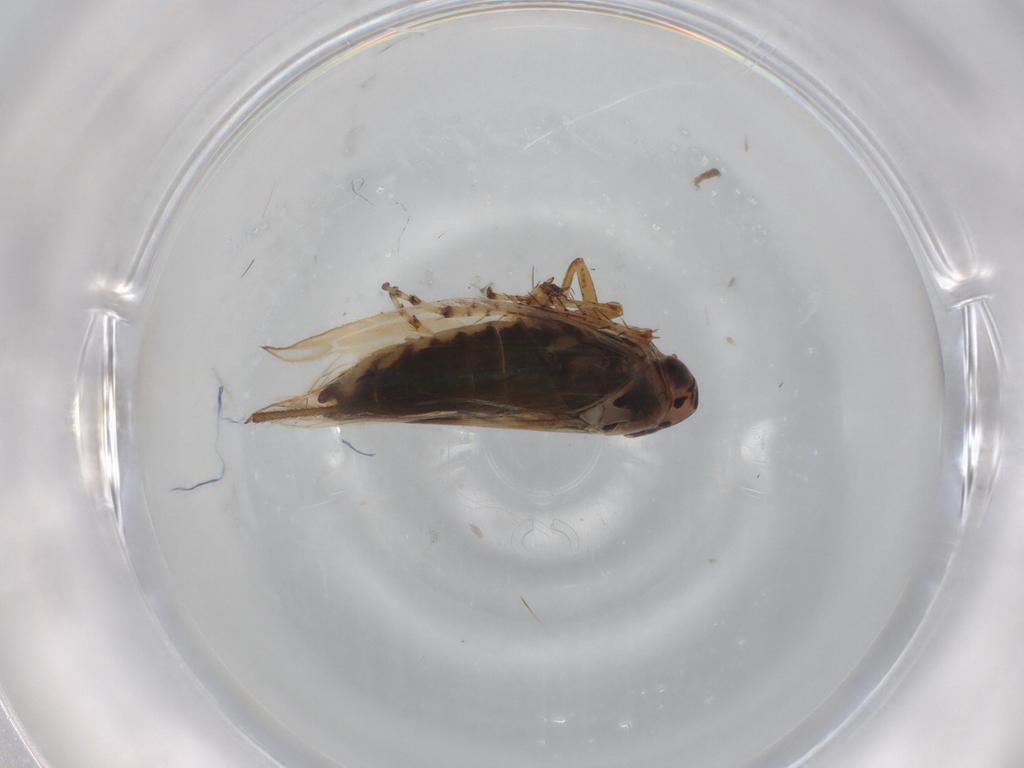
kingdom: Animalia
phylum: Arthropoda
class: Insecta
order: Hemiptera
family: Cicadellidae
